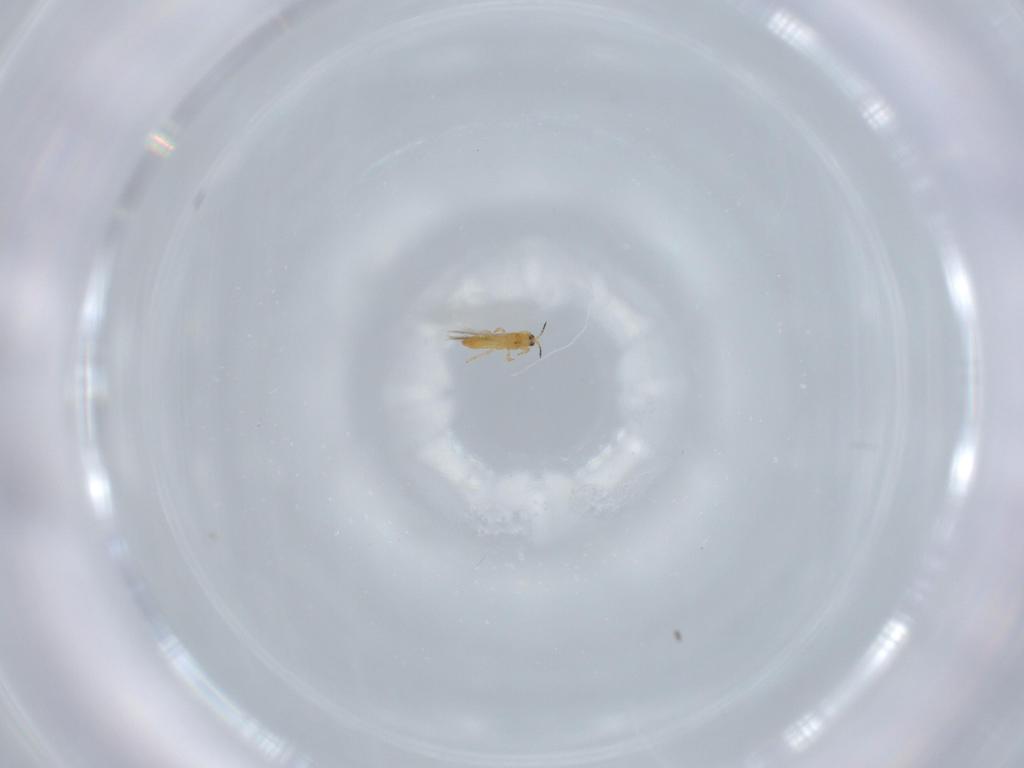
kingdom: Animalia
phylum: Arthropoda
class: Insecta
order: Thysanoptera
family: Thripidae
